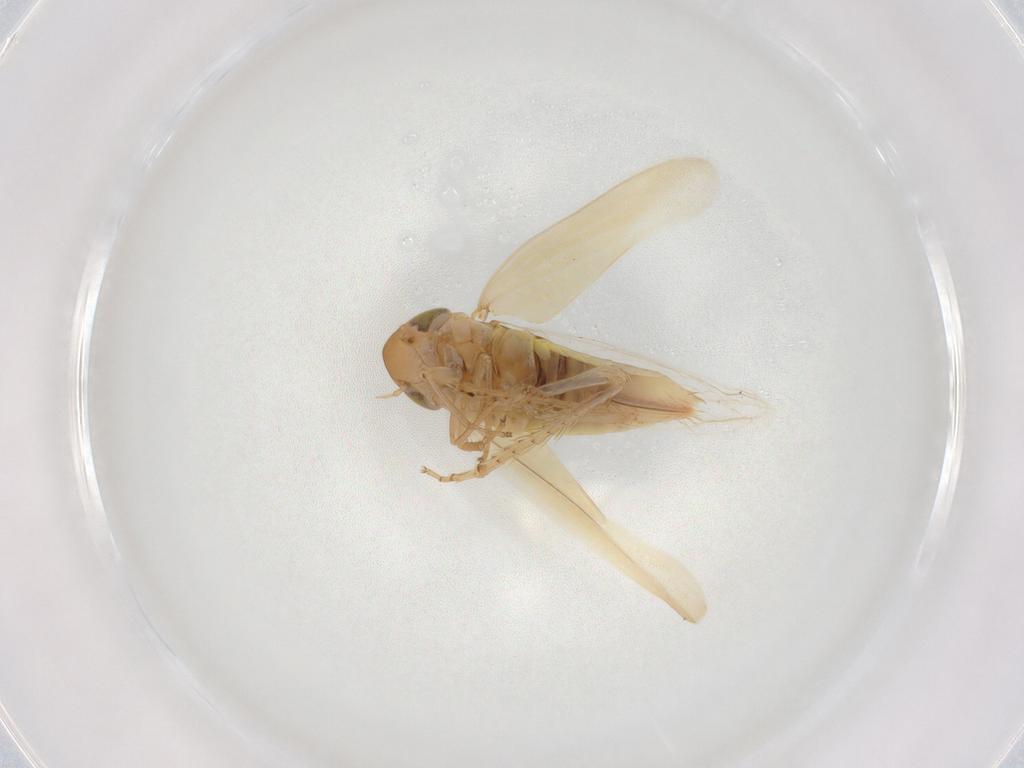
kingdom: Animalia
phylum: Arthropoda
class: Insecta
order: Hemiptera
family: Cicadellidae
